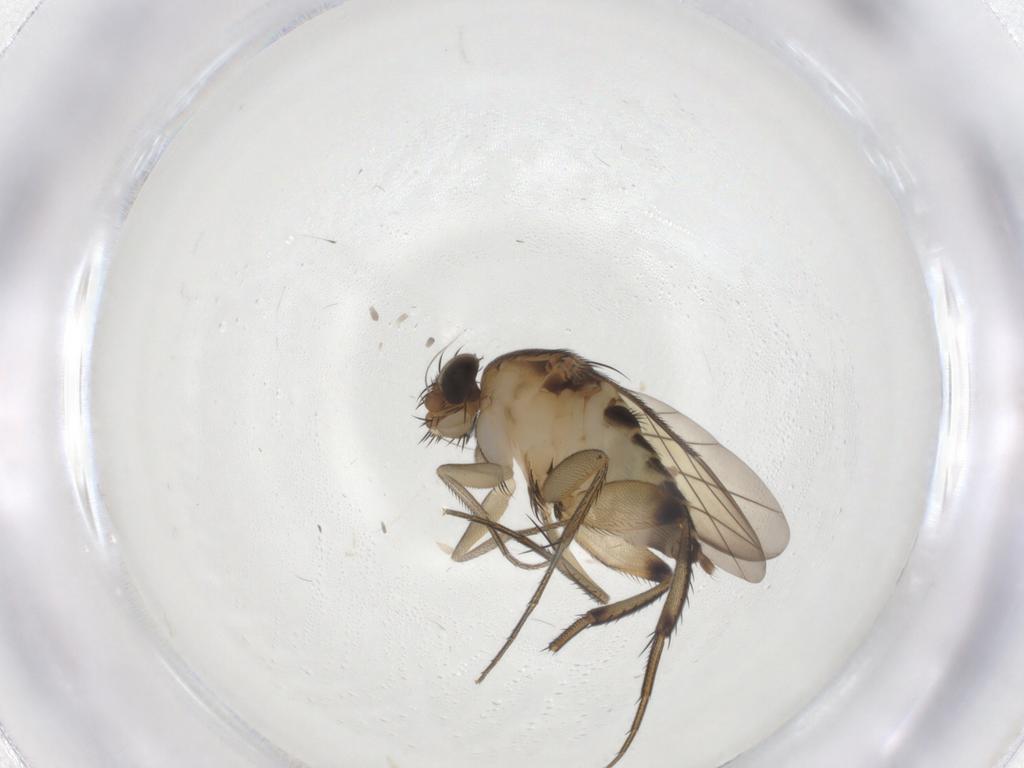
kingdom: Animalia
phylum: Arthropoda
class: Insecta
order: Diptera
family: Phoridae
